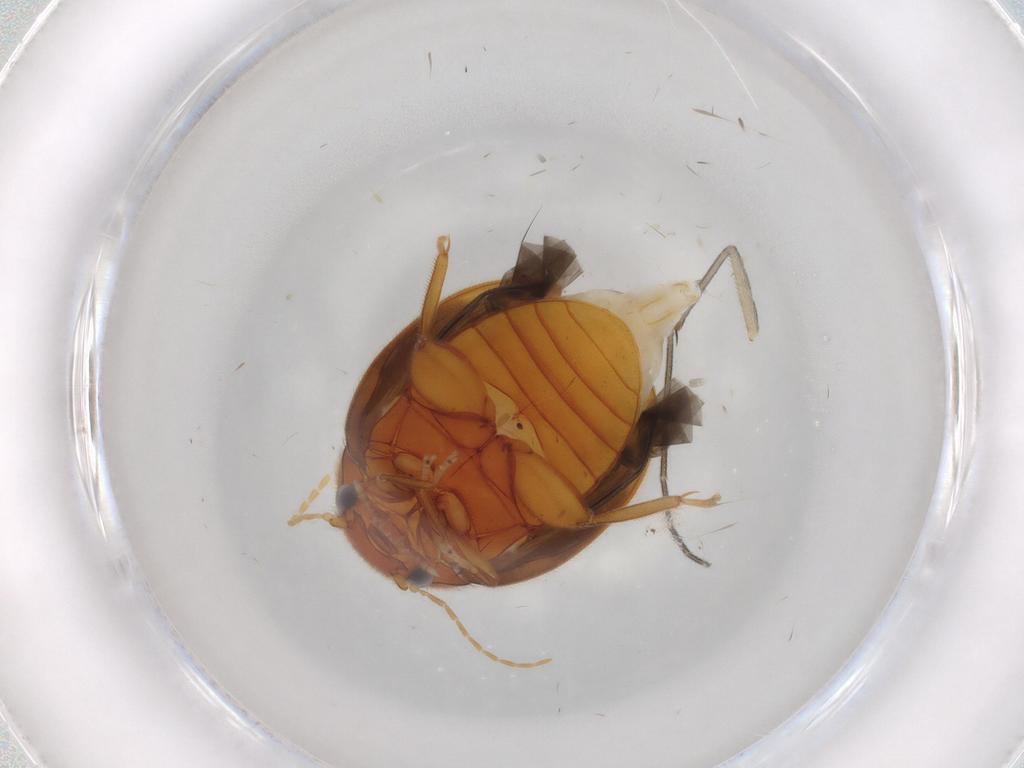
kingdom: Animalia
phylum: Arthropoda
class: Insecta
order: Coleoptera
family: Scirtidae
